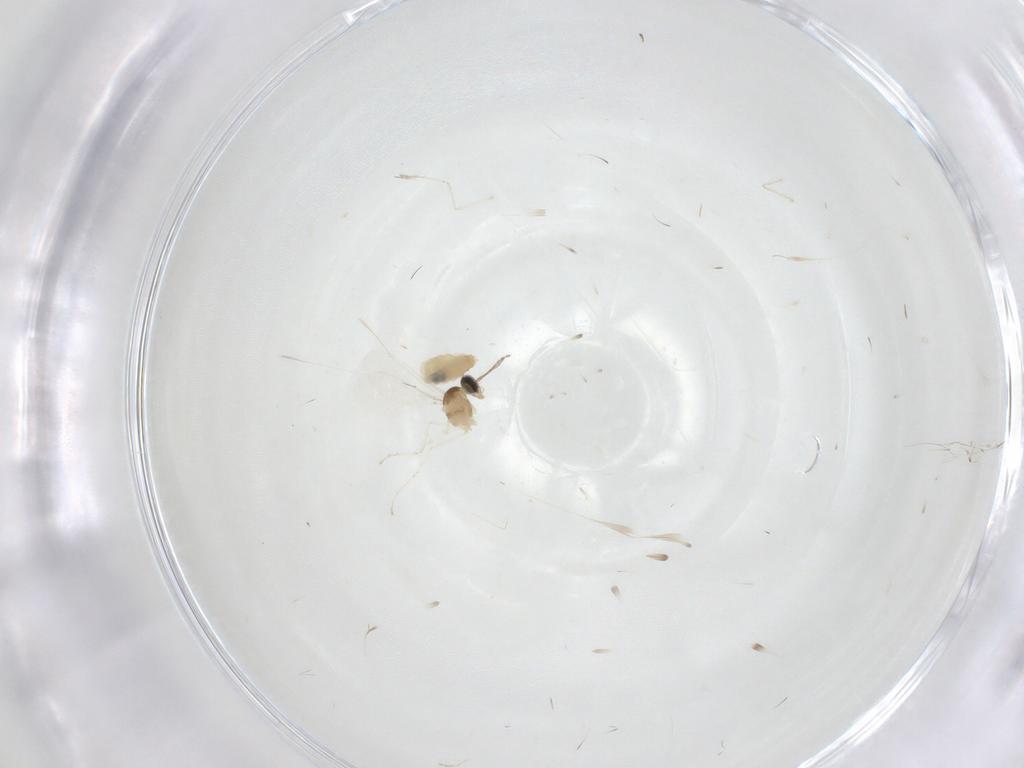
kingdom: Animalia
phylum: Arthropoda
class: Insecta
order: Diptera
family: Cecidomyiidae
